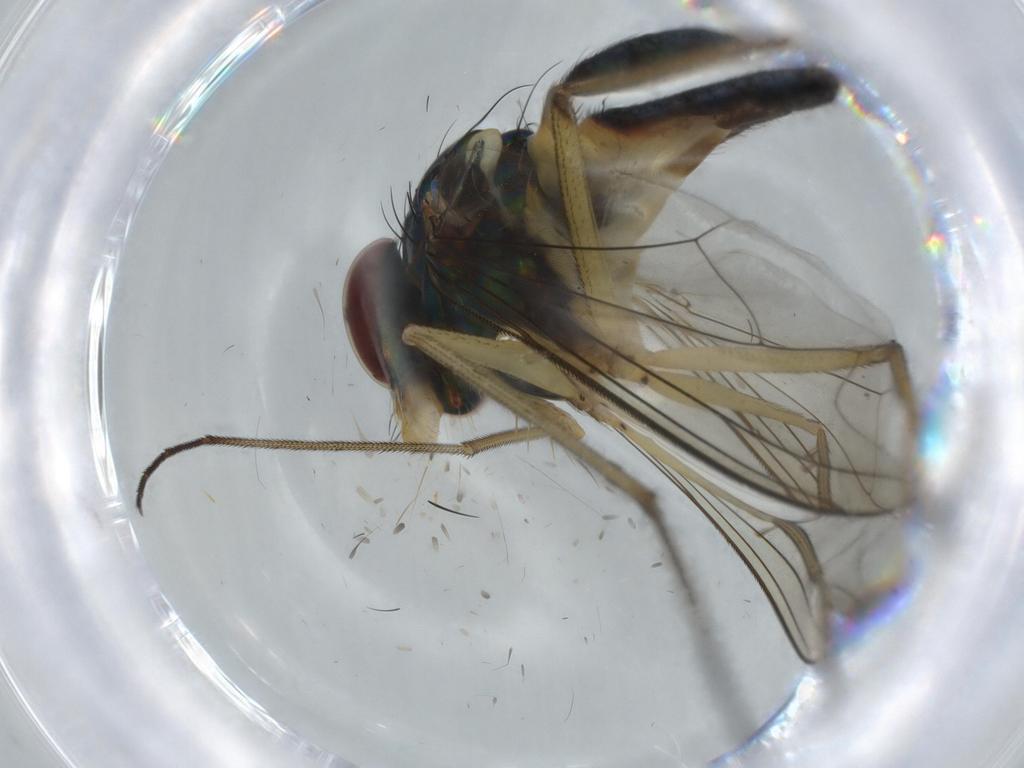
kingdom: Animalia
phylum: Arthropoda
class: Insecta
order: Diptera
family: Dolichopodidae
